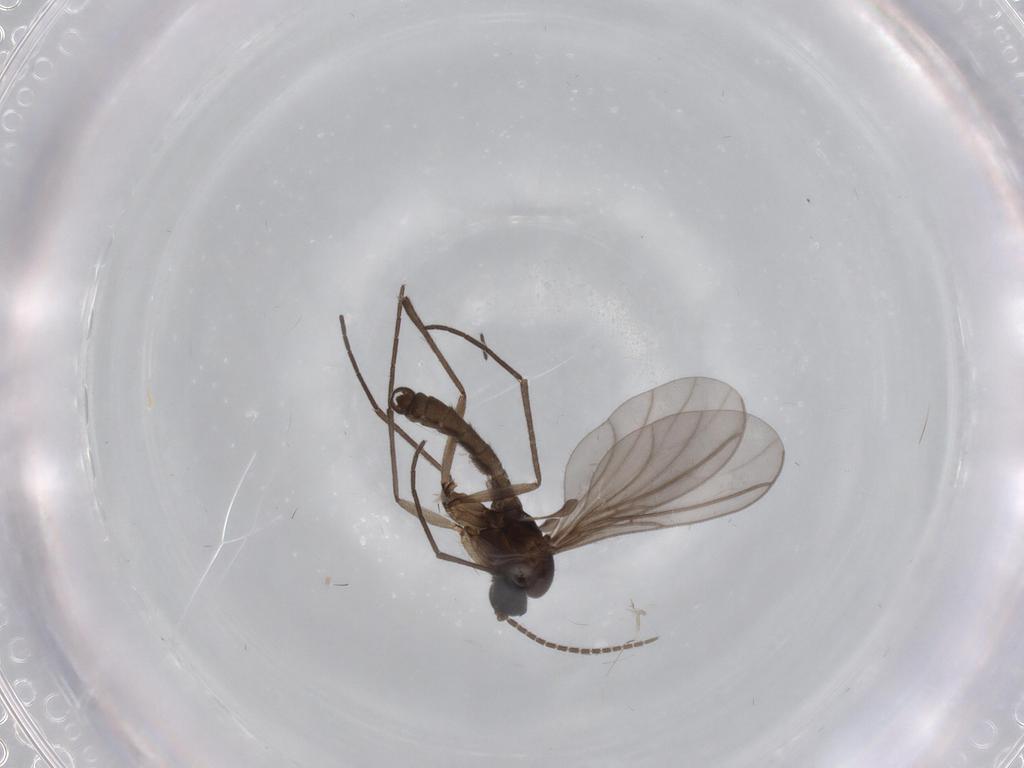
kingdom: Animalia
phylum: Arthropoda
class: Insecta
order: Diptera
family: Sciaridae
